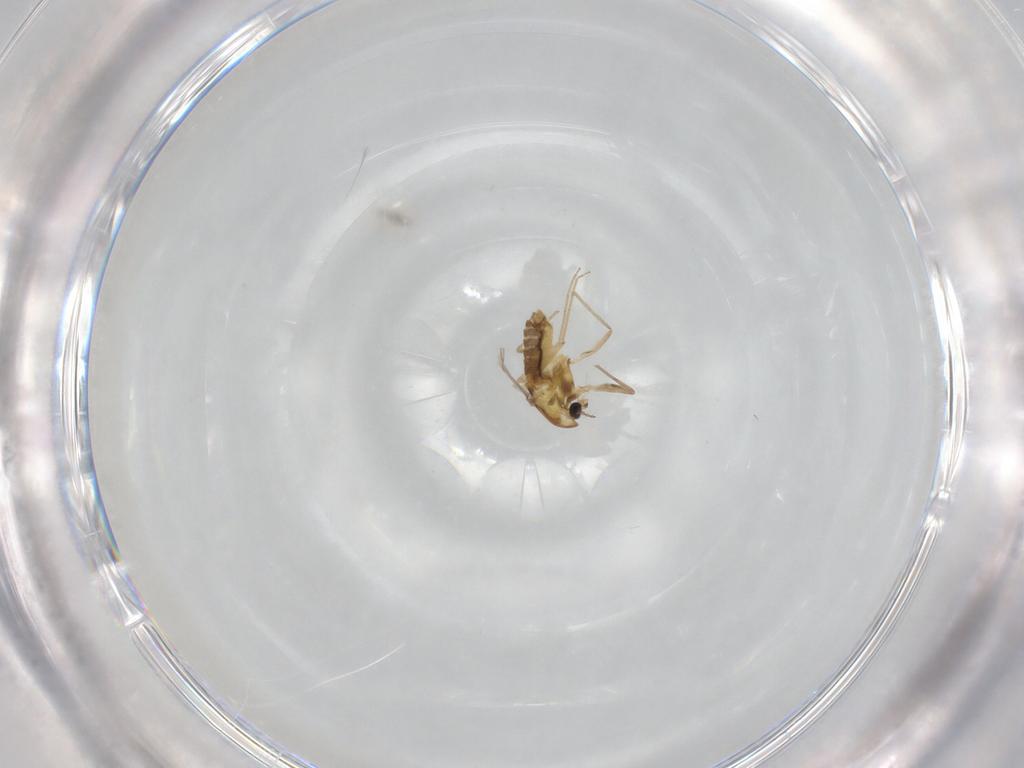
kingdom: Animalia
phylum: Arthropoda
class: Insecta
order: Diptera
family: Chironomidae
